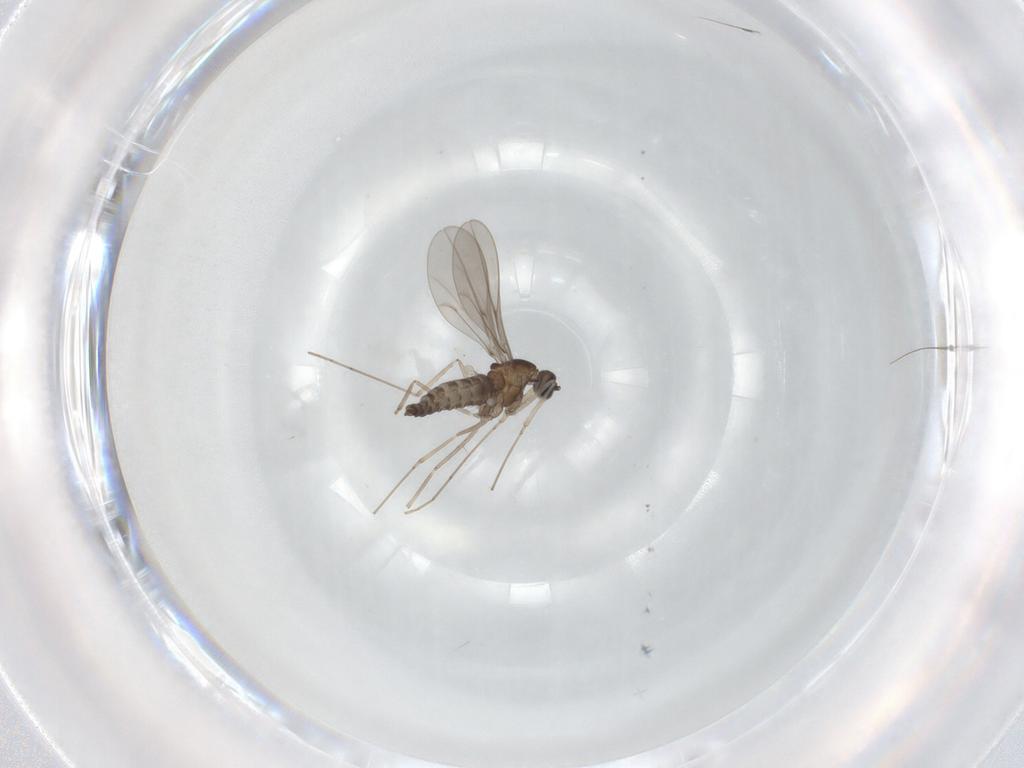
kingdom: Animalia
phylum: Arthropoda
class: Insecta
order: Diptera
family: Cecidomyiidae
